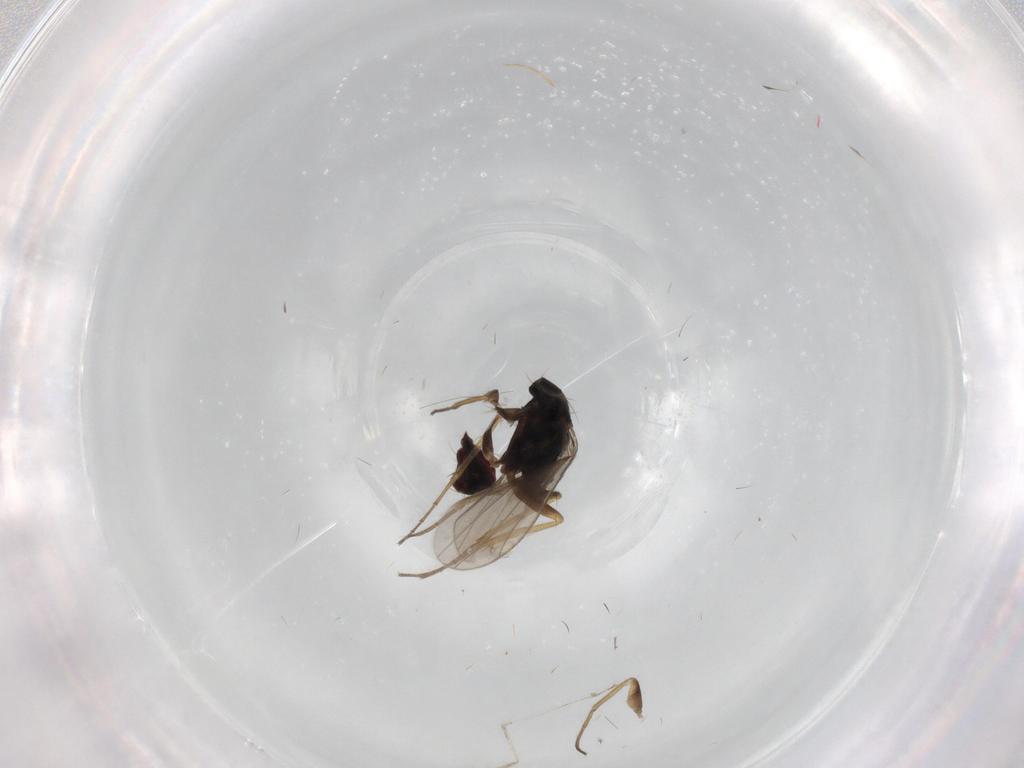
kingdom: Animalia
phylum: Arthropoda
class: Insecta
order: Diptera
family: Cecidomyiidae
